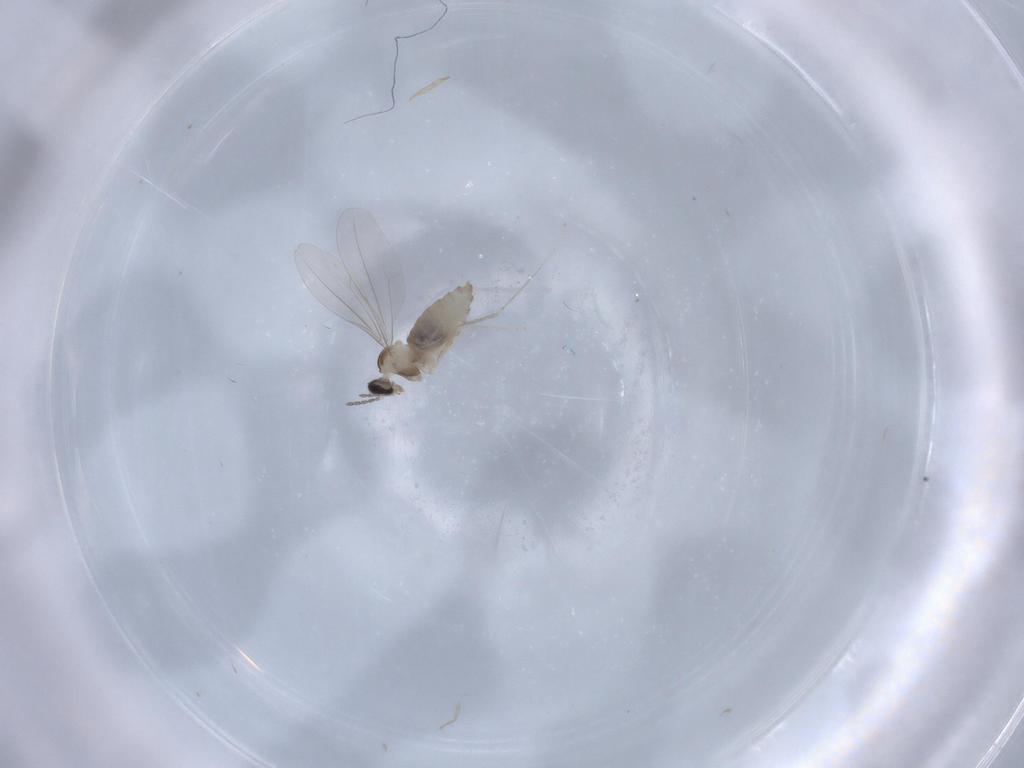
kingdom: Animalia
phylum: Arthropoda
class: Insecta
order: Diptera
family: Cecidomyiidae
